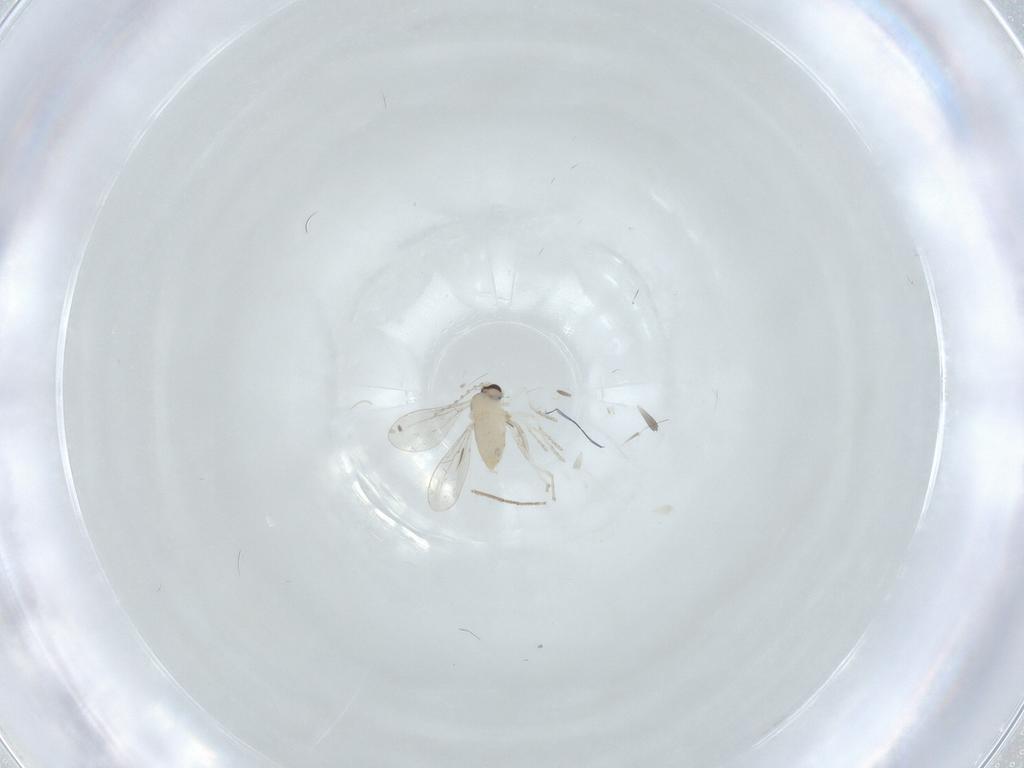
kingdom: Animalia
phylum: Arthropoda
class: Insecta
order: Diptera
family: Cecidomyiidae
